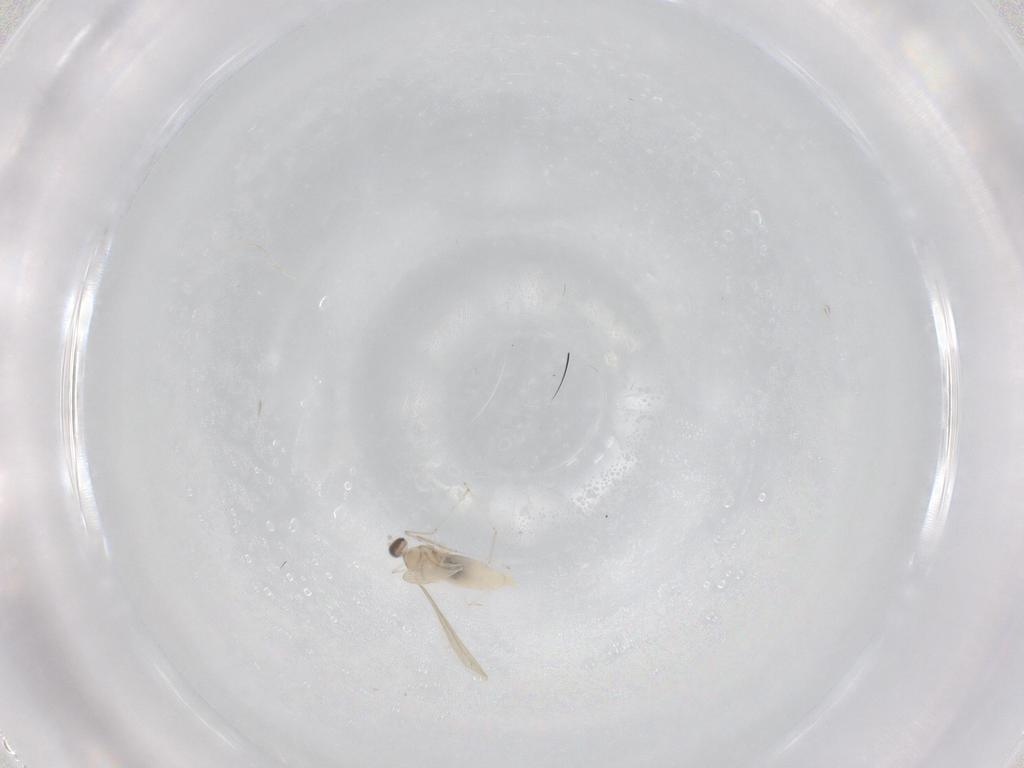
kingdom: Animalia
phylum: Arthropoda
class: Insecta
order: Diptera
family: Cecidomyiidae
